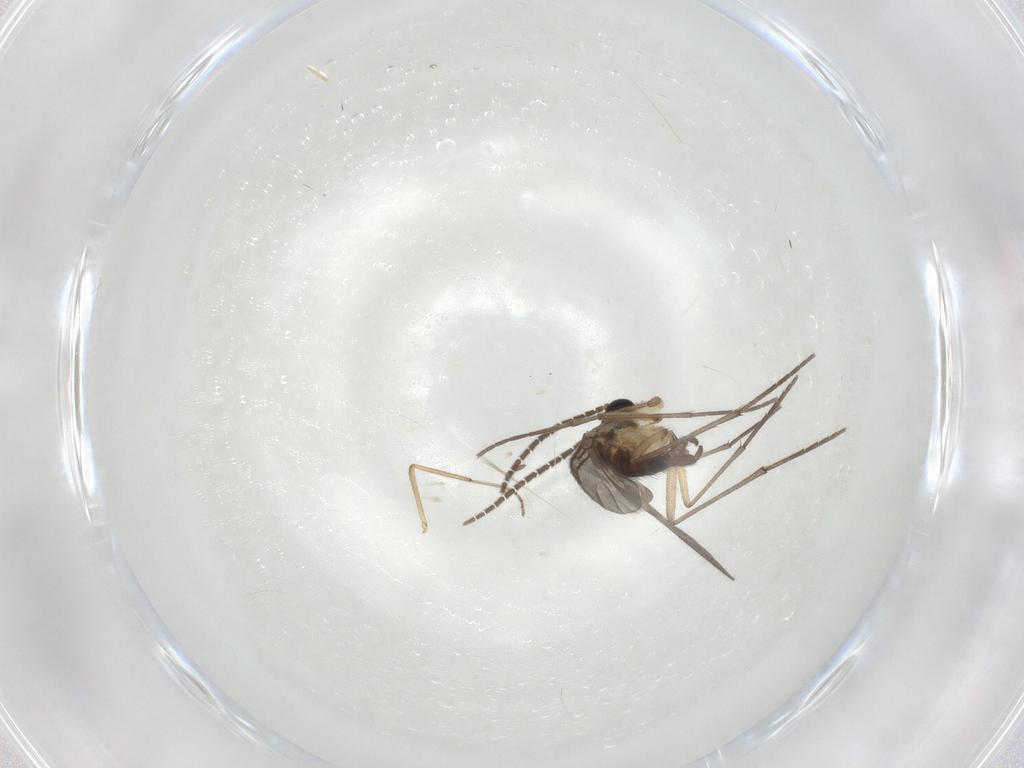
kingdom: Animalia
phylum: Arthropoda
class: Insecta
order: Diptera
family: Sciaridae
